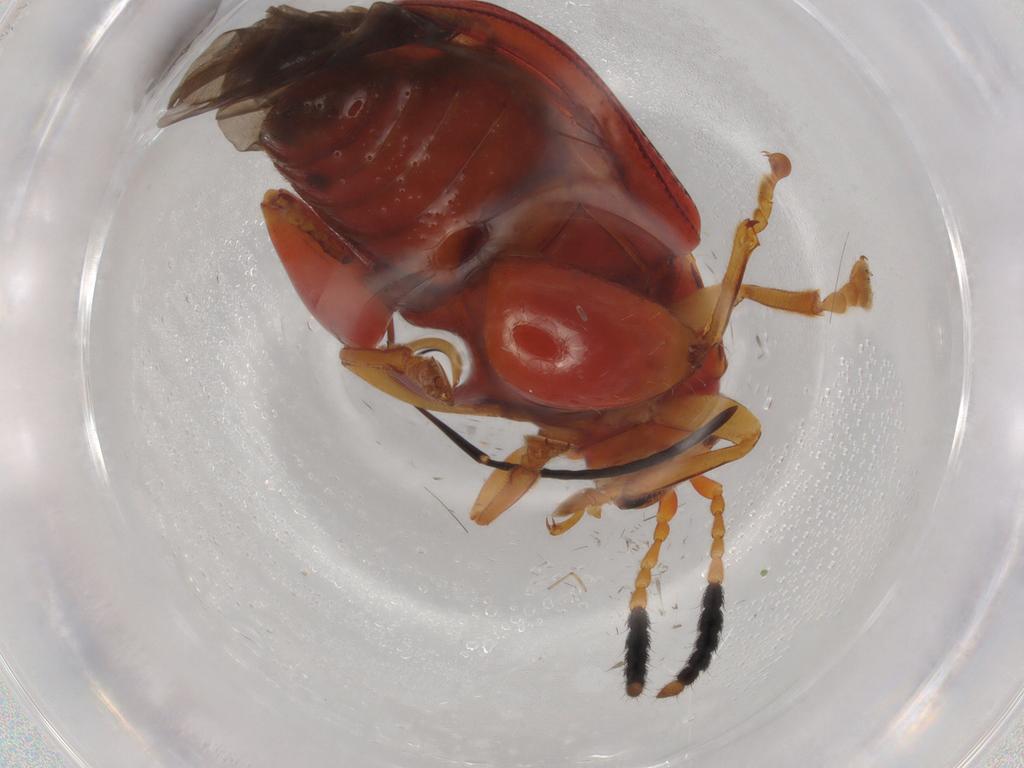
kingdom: Animalia
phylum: Arthropoda
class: Insecta
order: Coleoptera
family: Chrysomelidae
